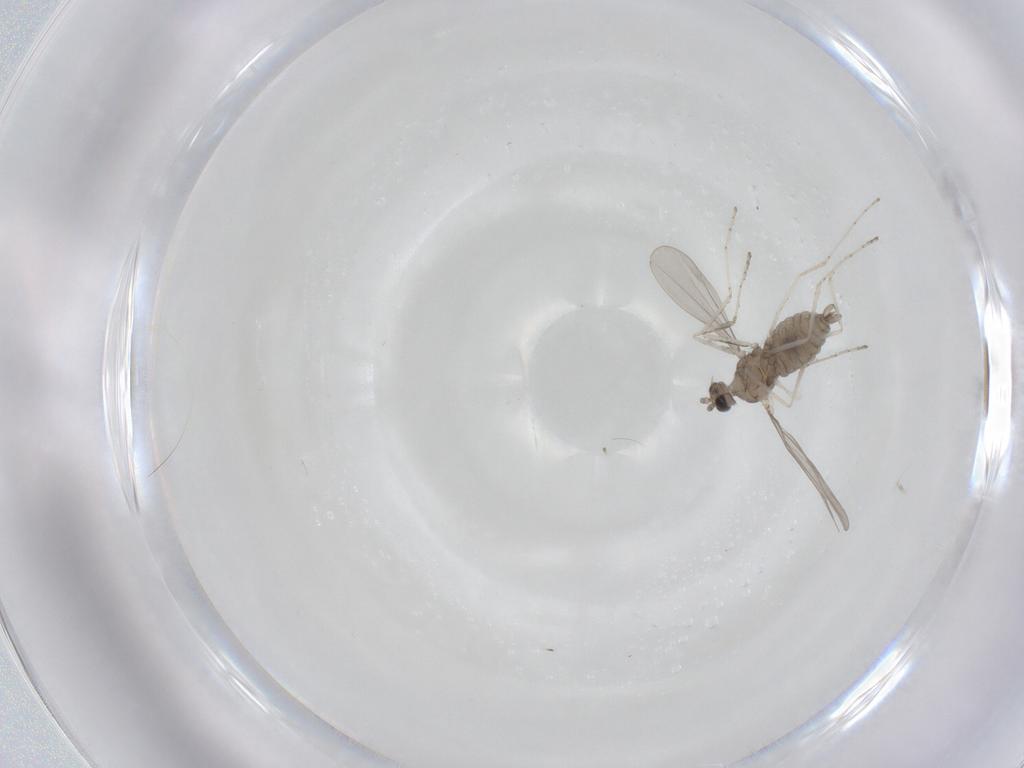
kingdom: Animalia
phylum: Arthropoda
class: Insecta
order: Diptera
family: Cecidomyiidae
